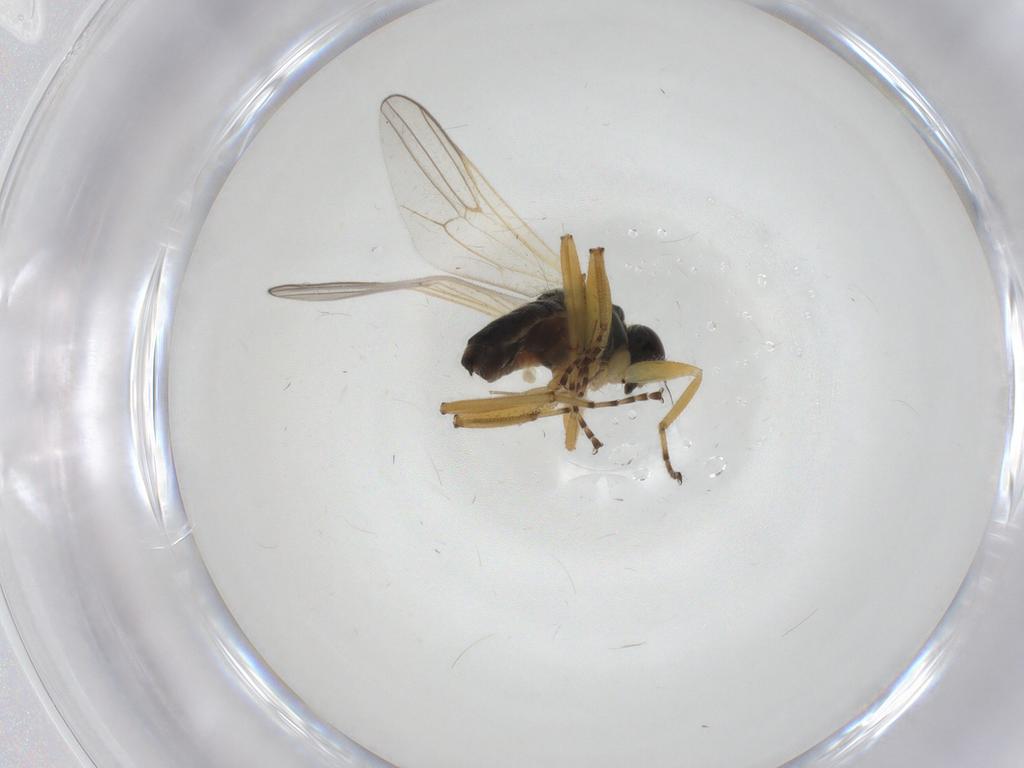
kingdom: Animalia
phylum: Arthropoda
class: Insecta
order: Diptera
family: Hybotidae
